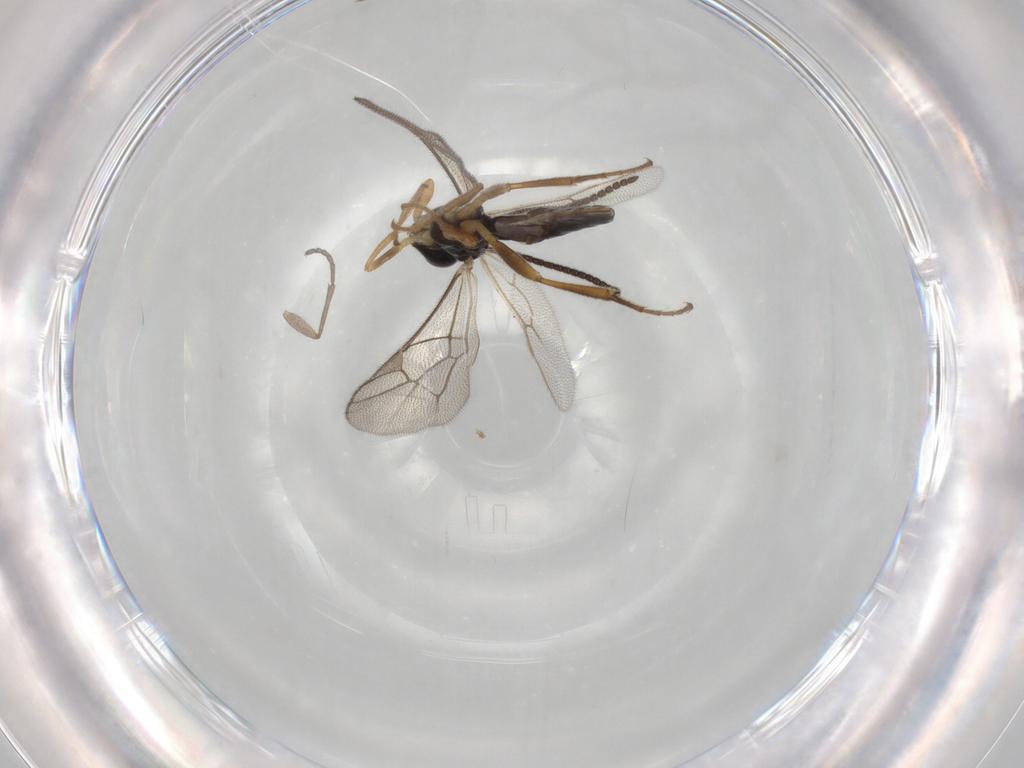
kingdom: Animalia
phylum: Arthropoda
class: Insecta
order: Hymenoptera
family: Ichneumonidae
